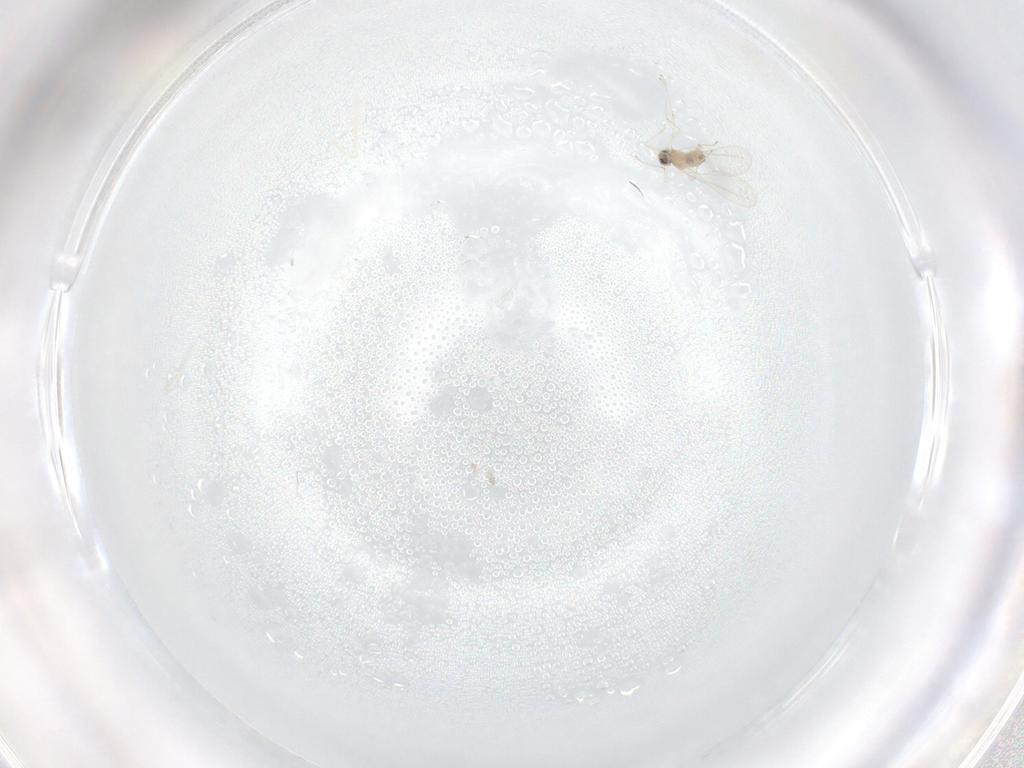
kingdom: Animalia
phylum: Arthropoda
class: Insecta
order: Diptera
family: Cecidomyiidae
